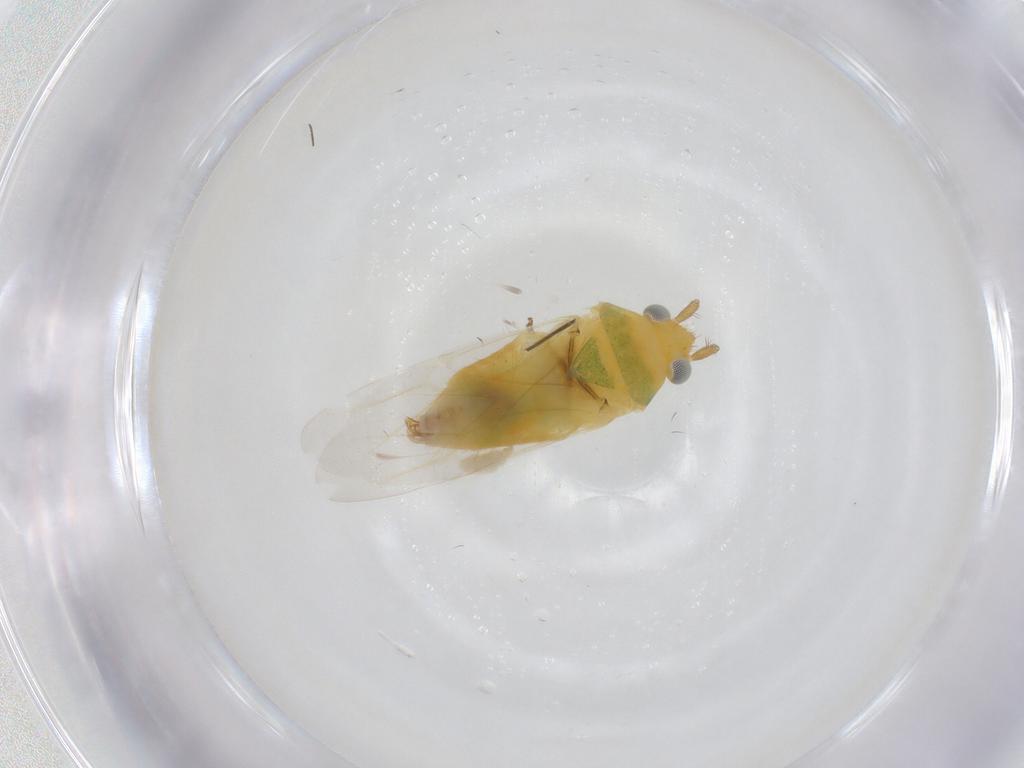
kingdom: Animalia
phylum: Arthropoda
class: Insecta
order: Hemiptera
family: Miridae
